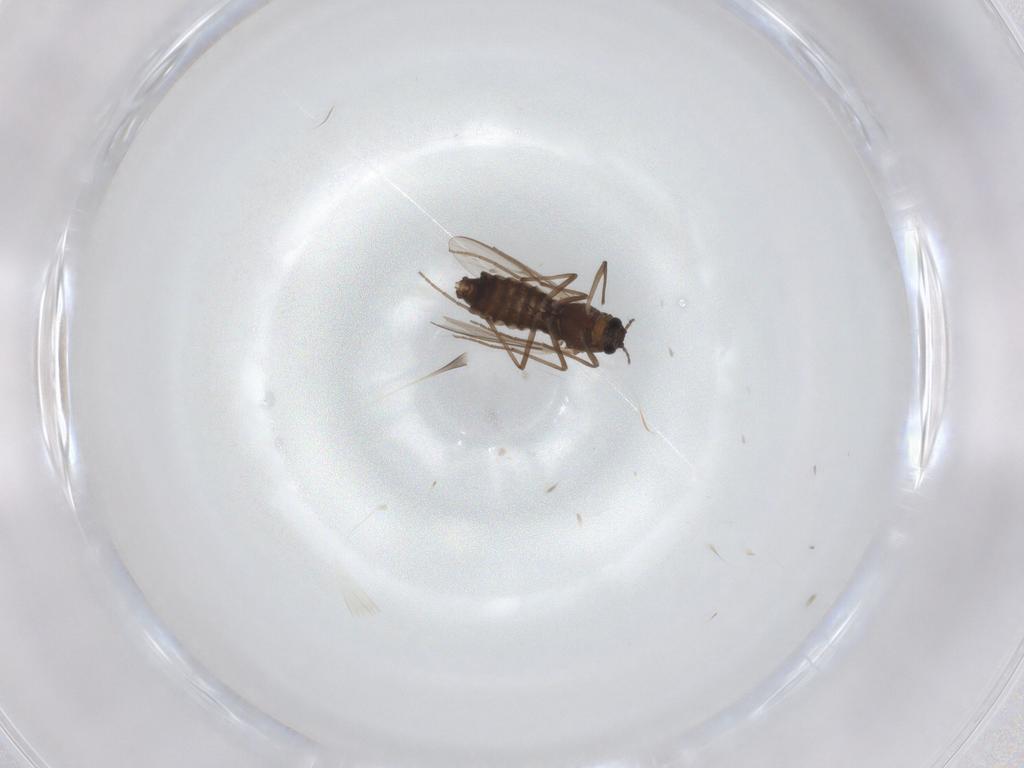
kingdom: Animalia
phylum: Arthropoda
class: Insecta
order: Diptera
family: Chironomidae
